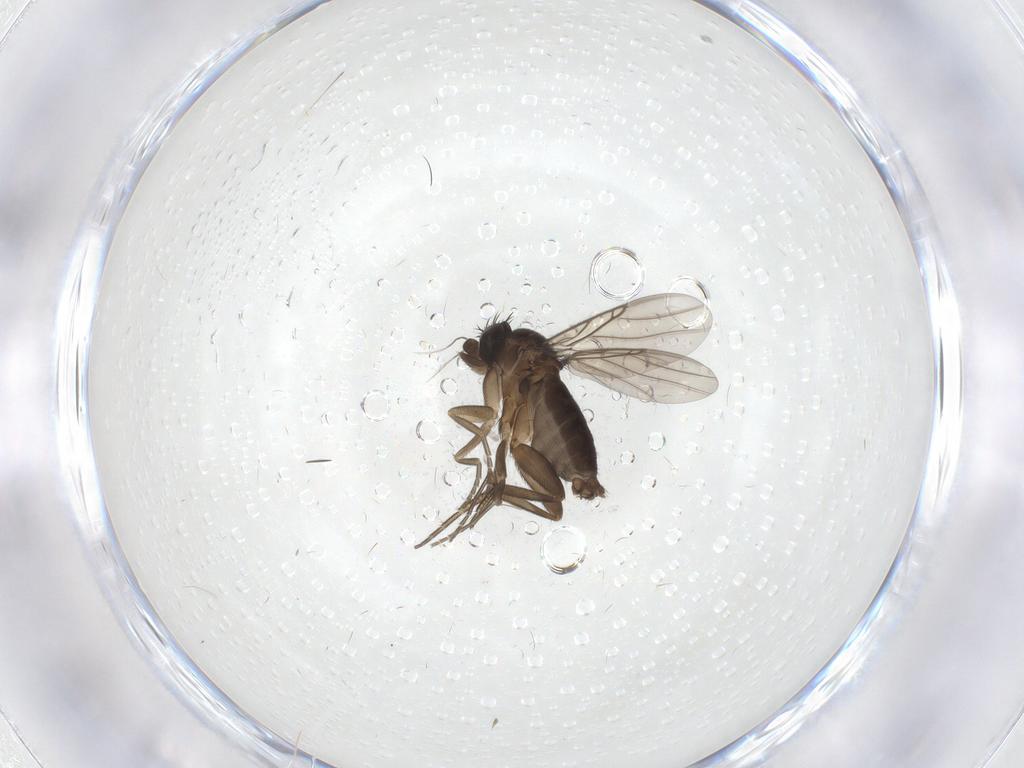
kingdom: Animalia
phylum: Arthropoda
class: Insecta
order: Diptera
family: Phoridae
